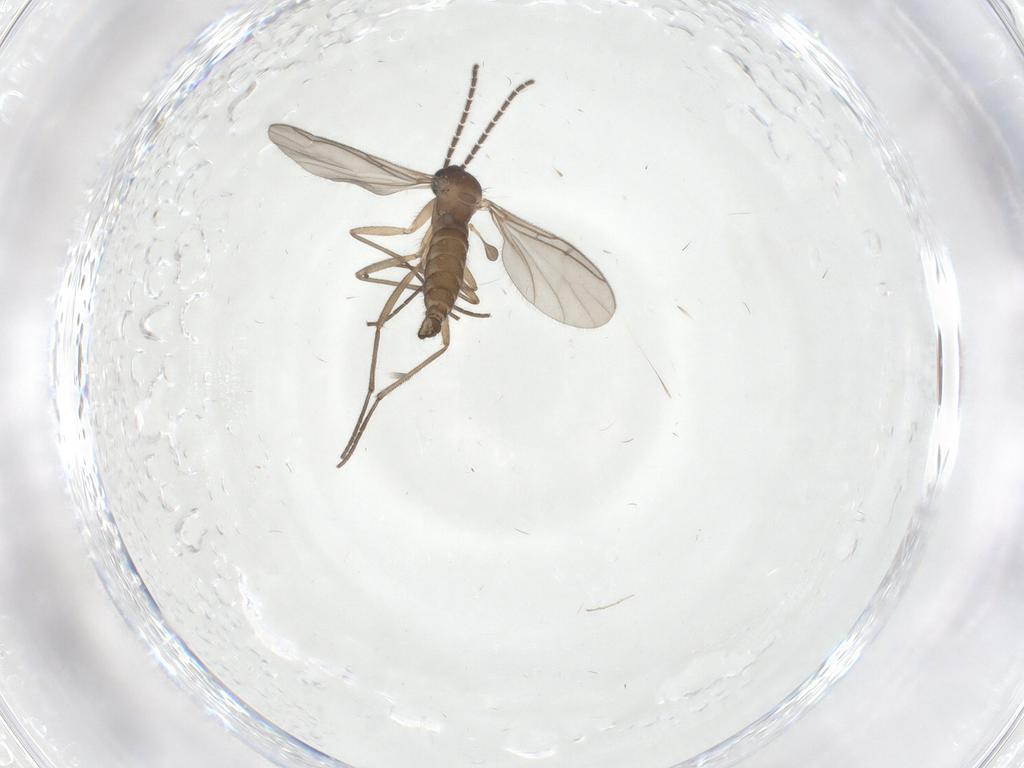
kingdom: Animalia
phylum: Arthropoda
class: Insecta
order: Diptera
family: Chironomidae
